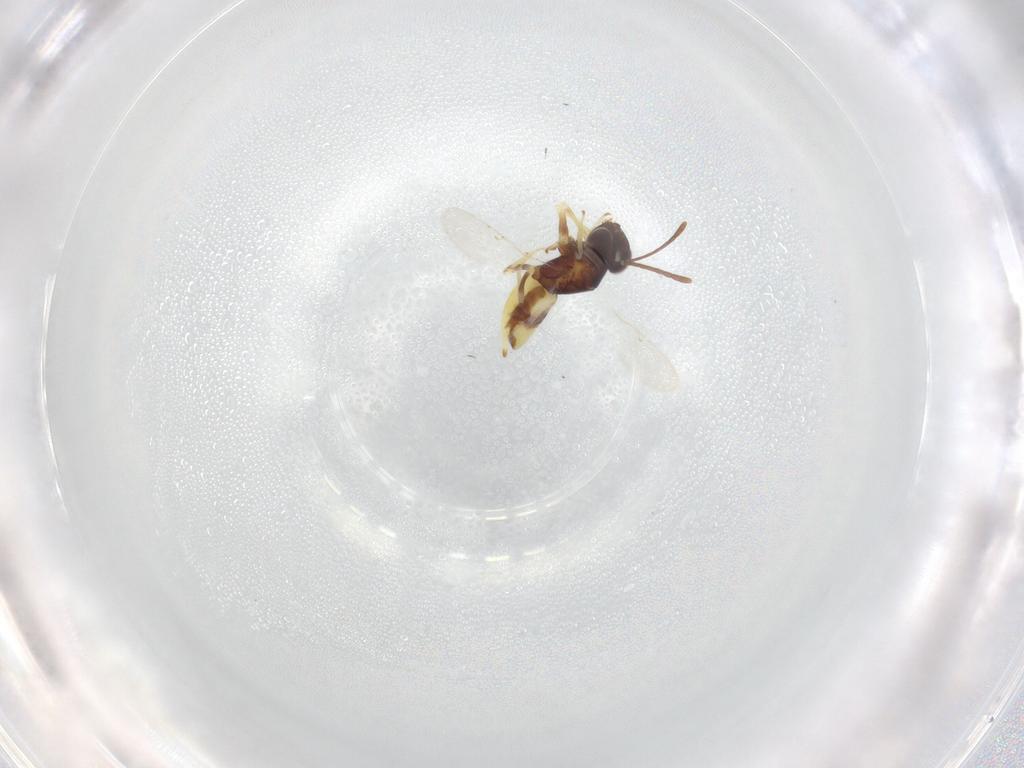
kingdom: Animalia
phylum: Arthropoda
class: Insecta
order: Hymenoptera
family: Encyrtidae
